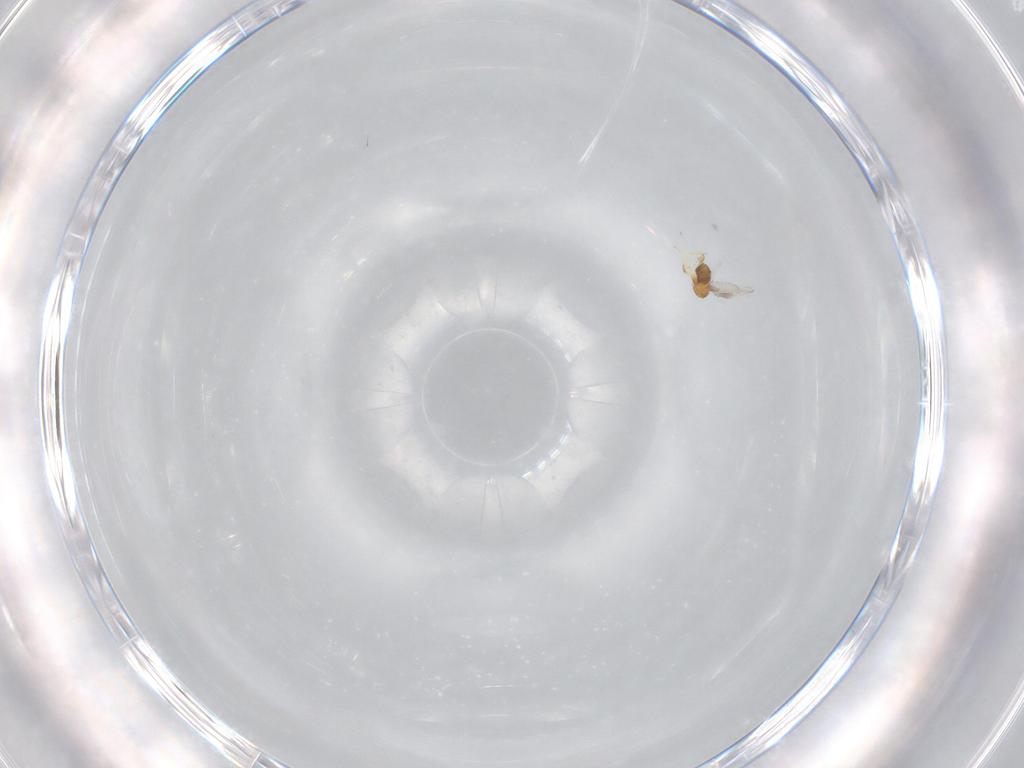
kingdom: Animalia
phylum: Arthropoda
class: Insecta
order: Hymenoptera
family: Trichogrammatidae
